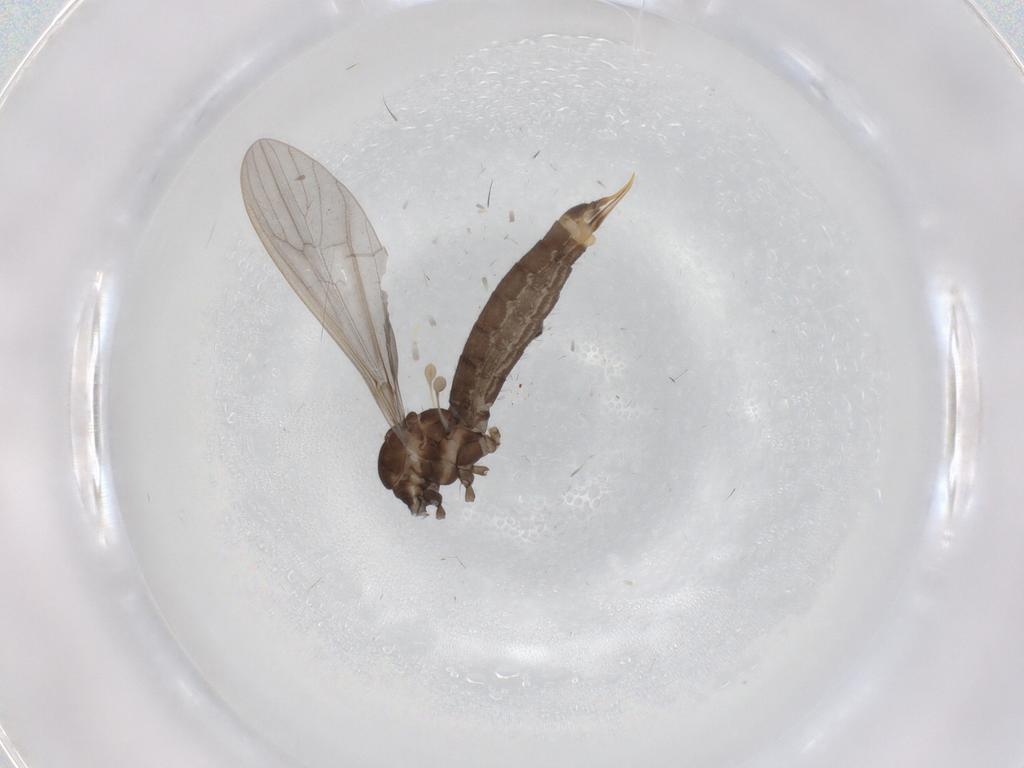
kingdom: Animalia
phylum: Arthropoda
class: Insecta
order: Diptera
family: Limoniidae
